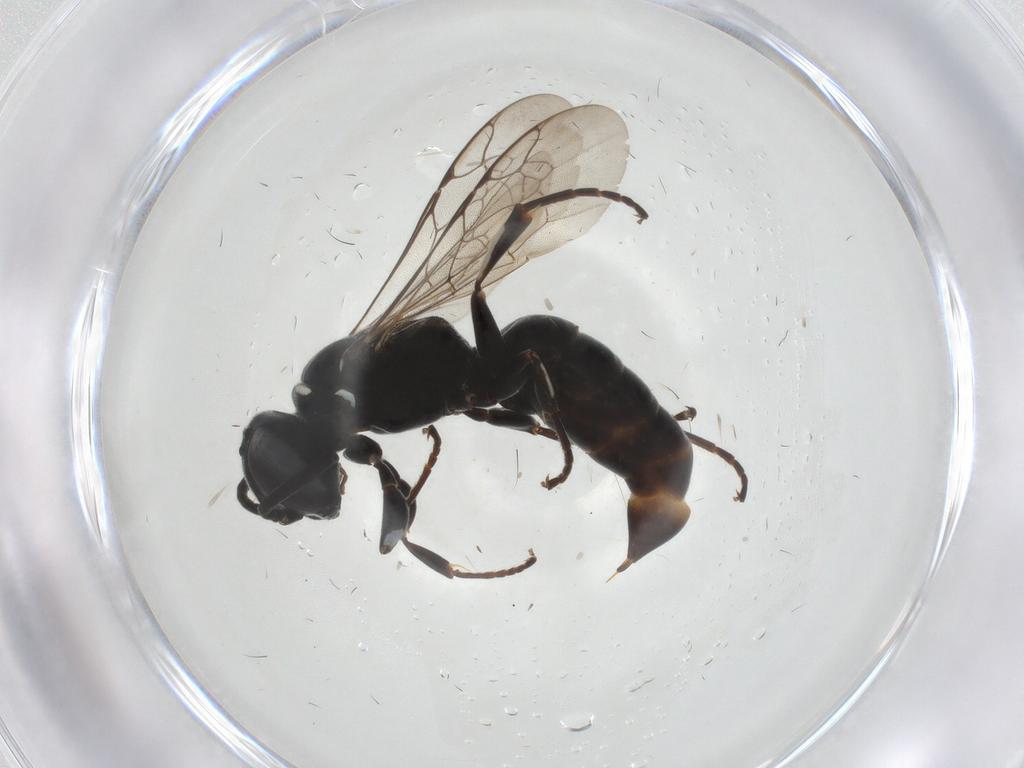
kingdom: Animalia
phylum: Arthropoda
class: Insecta
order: Hymenoptera
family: Crabronidae
